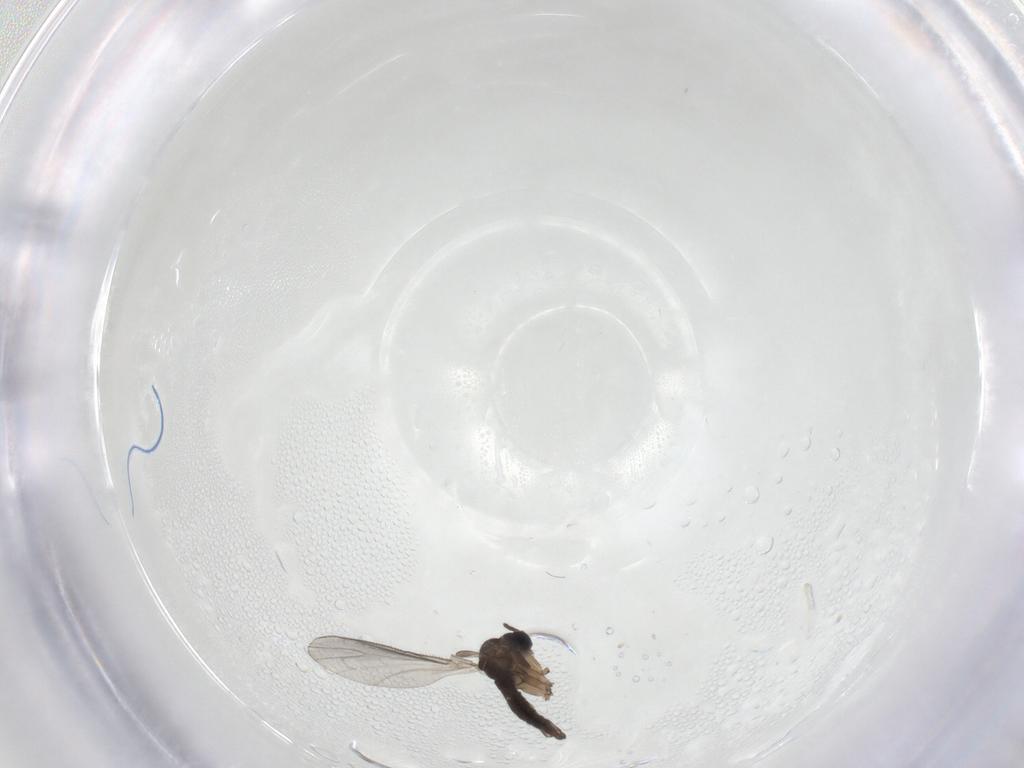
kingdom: Animalia
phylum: Arthropoda
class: Insecta
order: Diptera
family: Sciaridae
